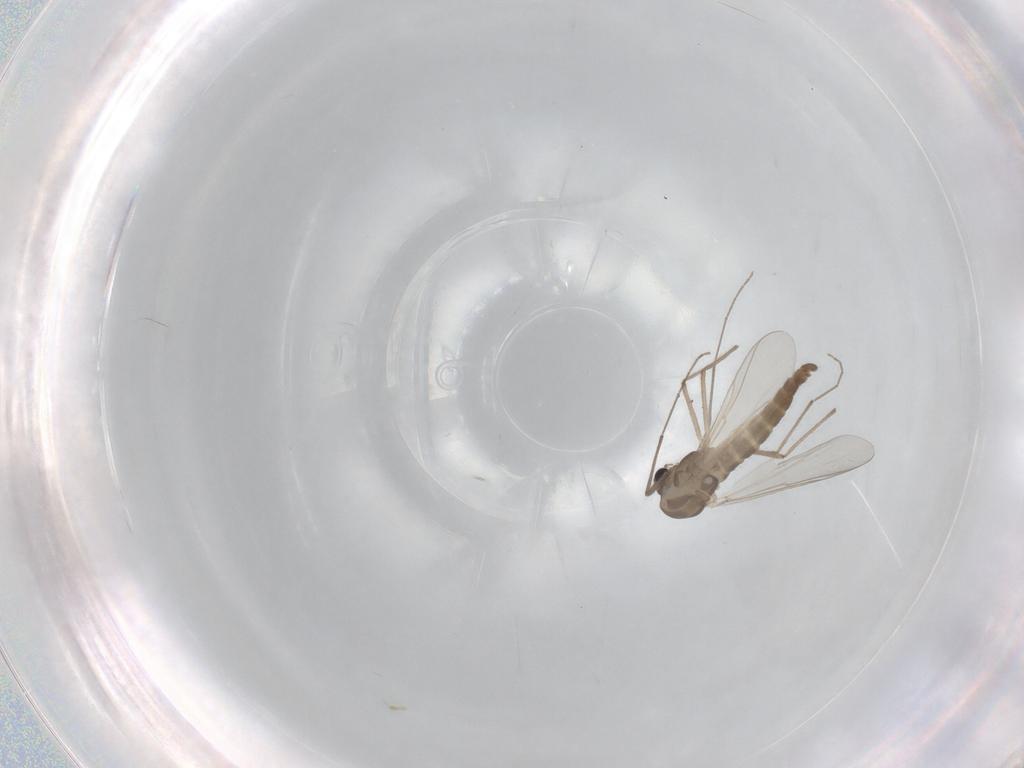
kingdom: Animalia
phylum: Arthropoda
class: Insecta
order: Diptera
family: Chironomidae
